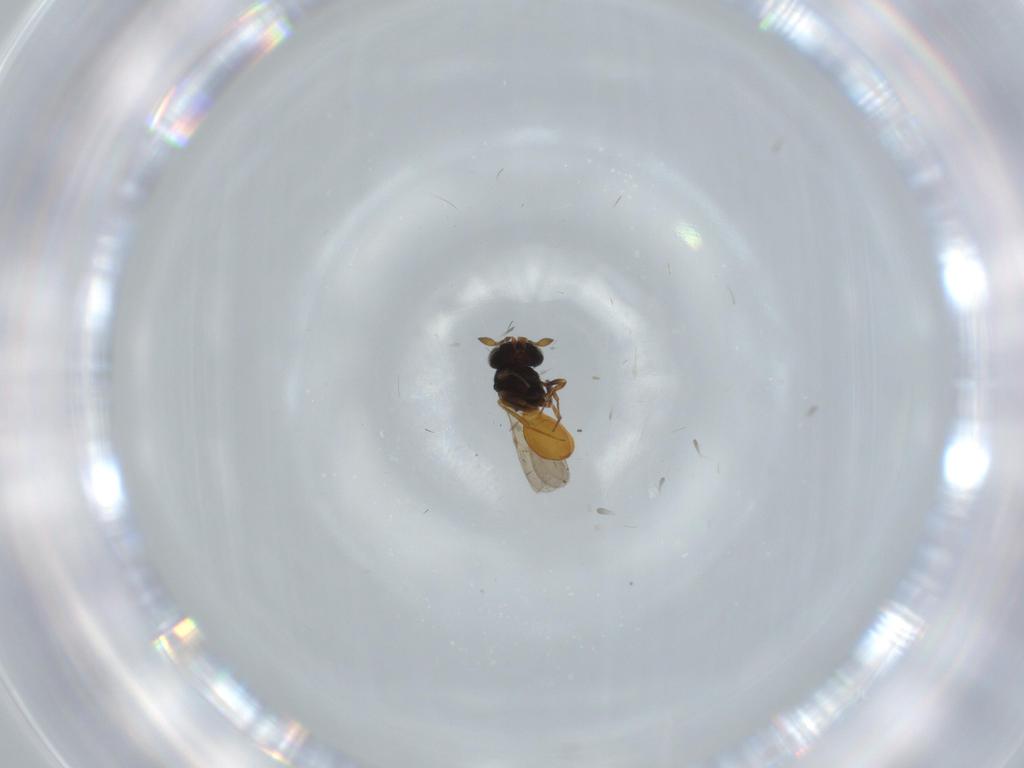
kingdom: Animalia
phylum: Arthropoda
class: Insecta
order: Hymenoptera
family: Scelionidae
